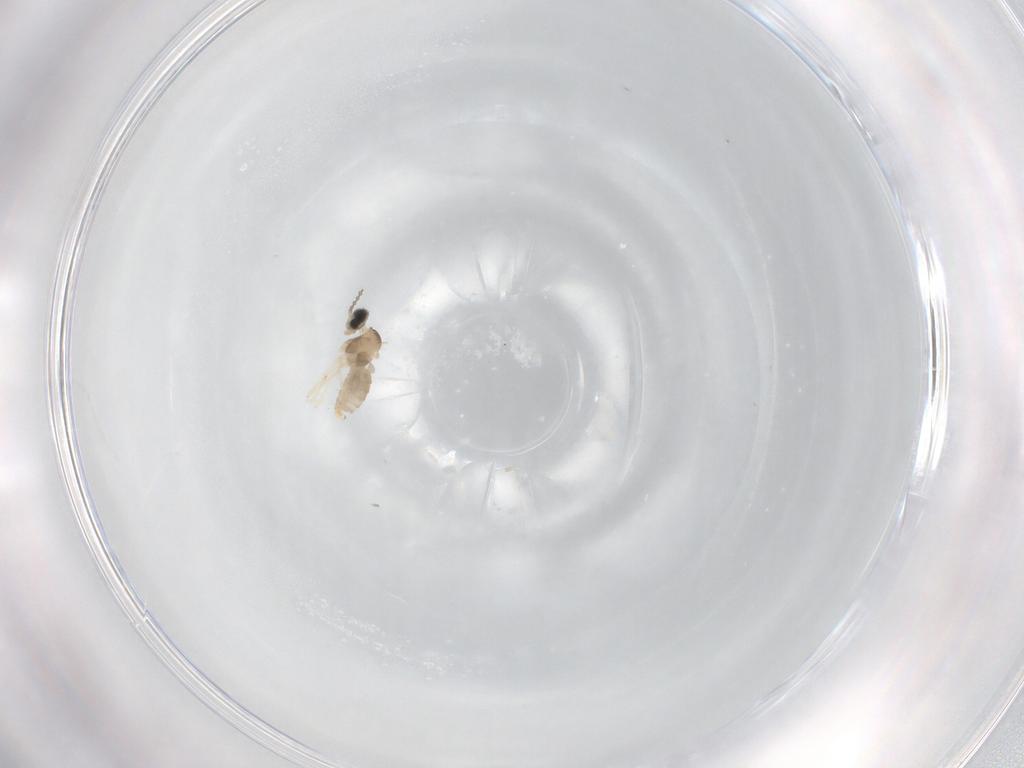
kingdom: Animalia
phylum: Arthropoda
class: Insecta
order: Diptera
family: Cecidomyiidae
